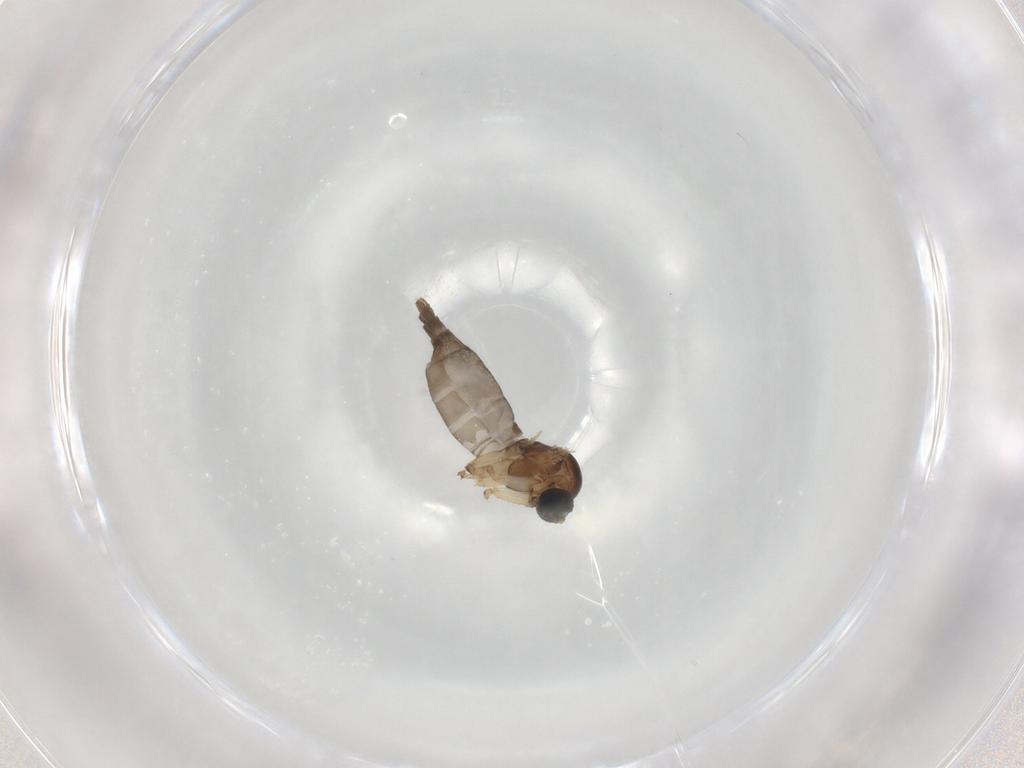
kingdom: Animalia
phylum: Arthropoda
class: Insecta
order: Diptera
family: Sciaridae
